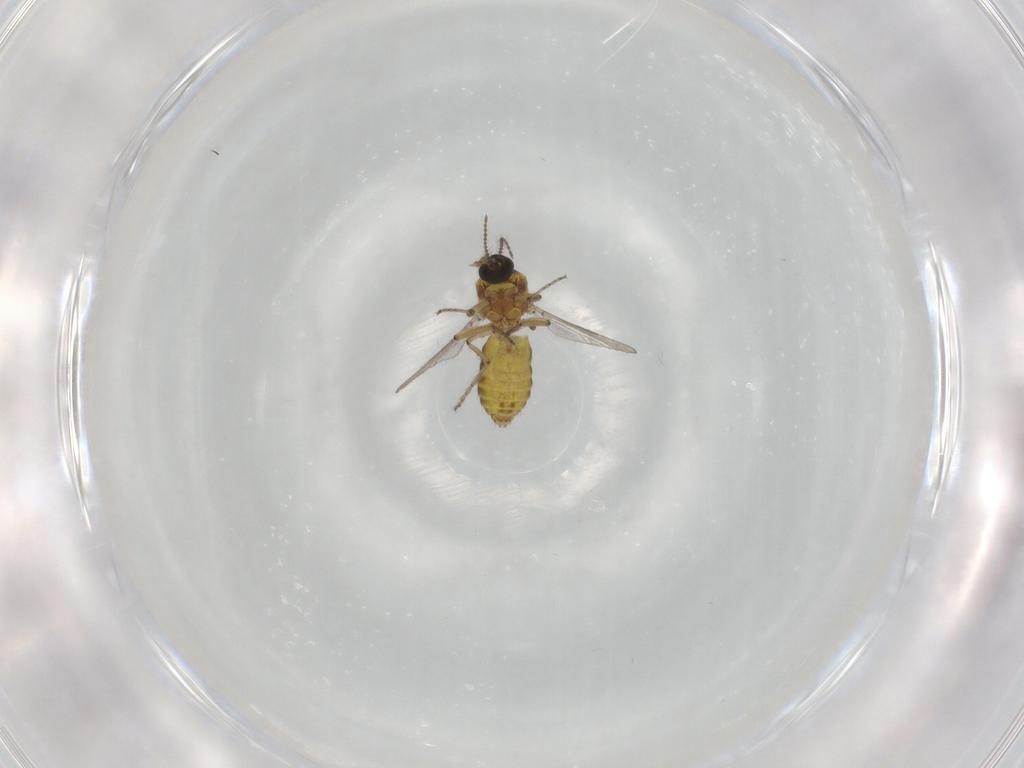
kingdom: Animalia
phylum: Arthropoda
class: Insecta
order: Diptera
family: Ceratopogonidae
